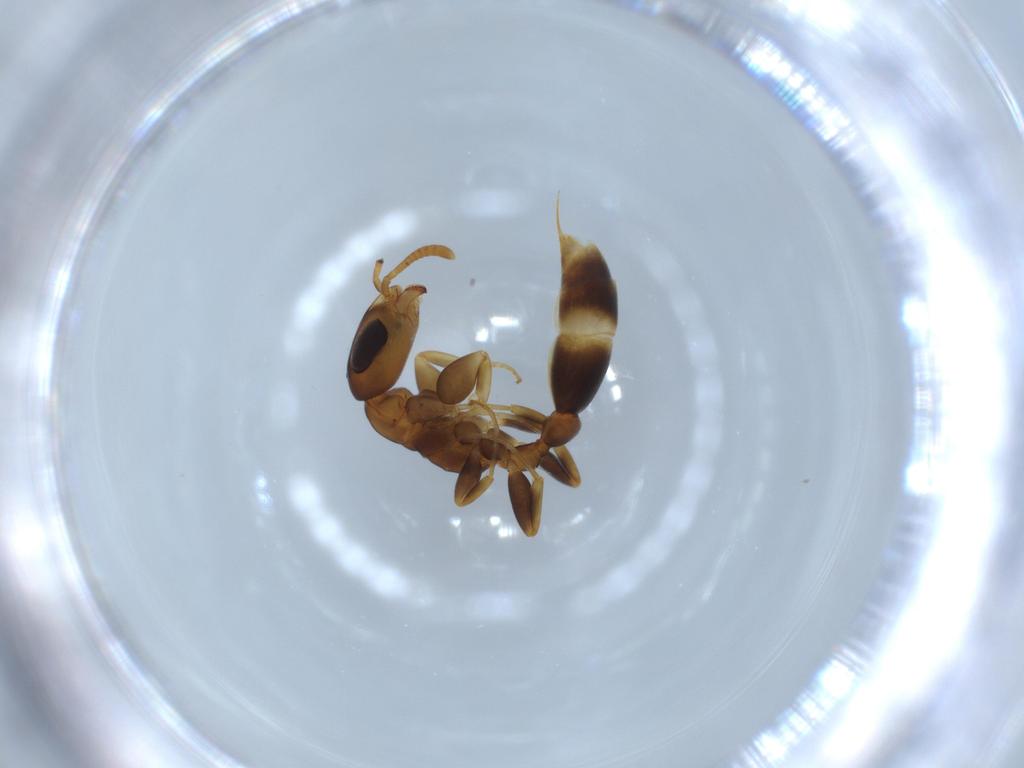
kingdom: Animalia
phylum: Arthropoda
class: Insecta
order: Hymenoptera
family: Formicidae
